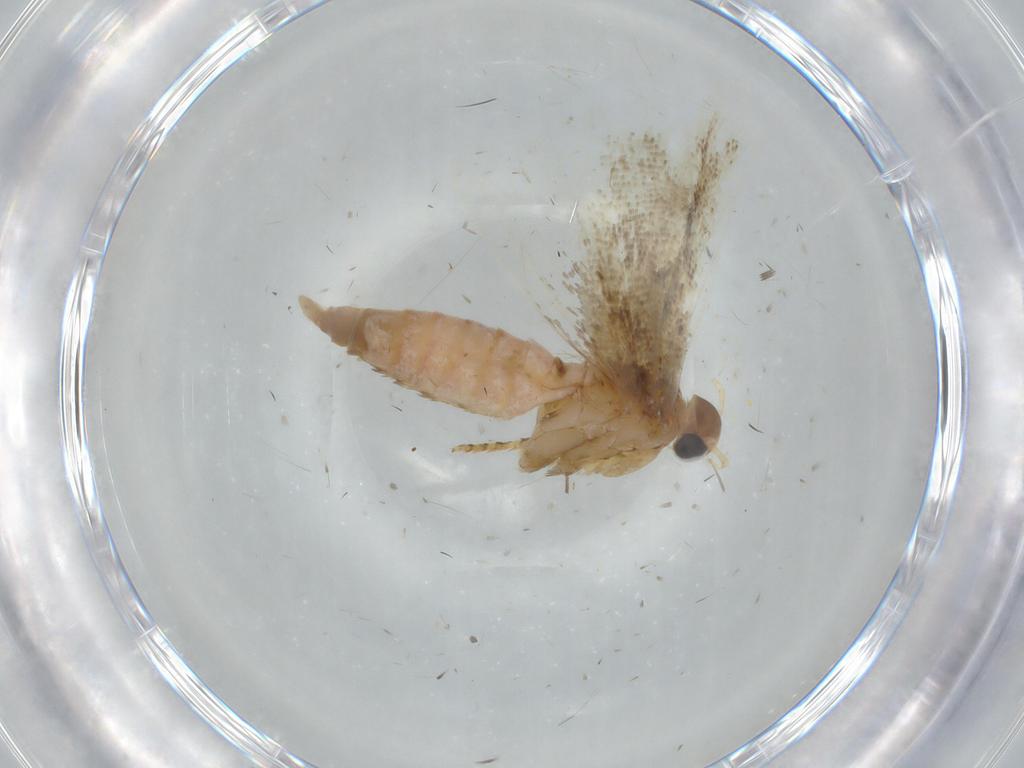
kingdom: Animalia
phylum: Arthropoda
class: Insecta
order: Lepidoptera
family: Gelechiidae
